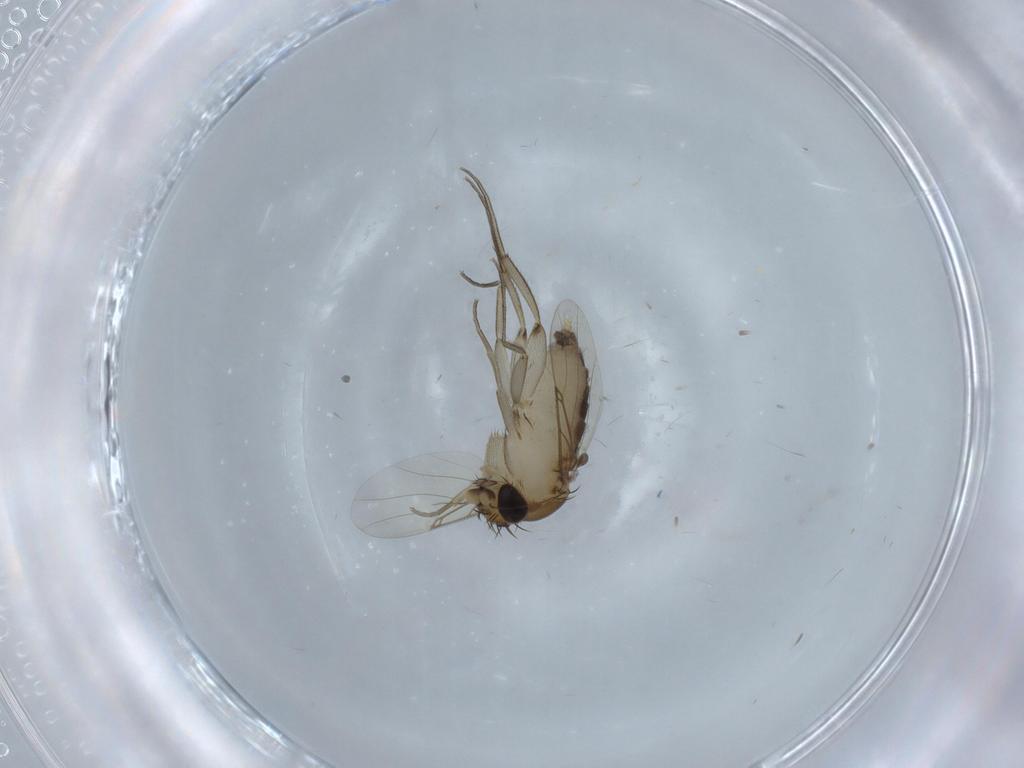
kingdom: Animalia
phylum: Arthropoda
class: Insecta
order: Diptera
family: Phoridae
